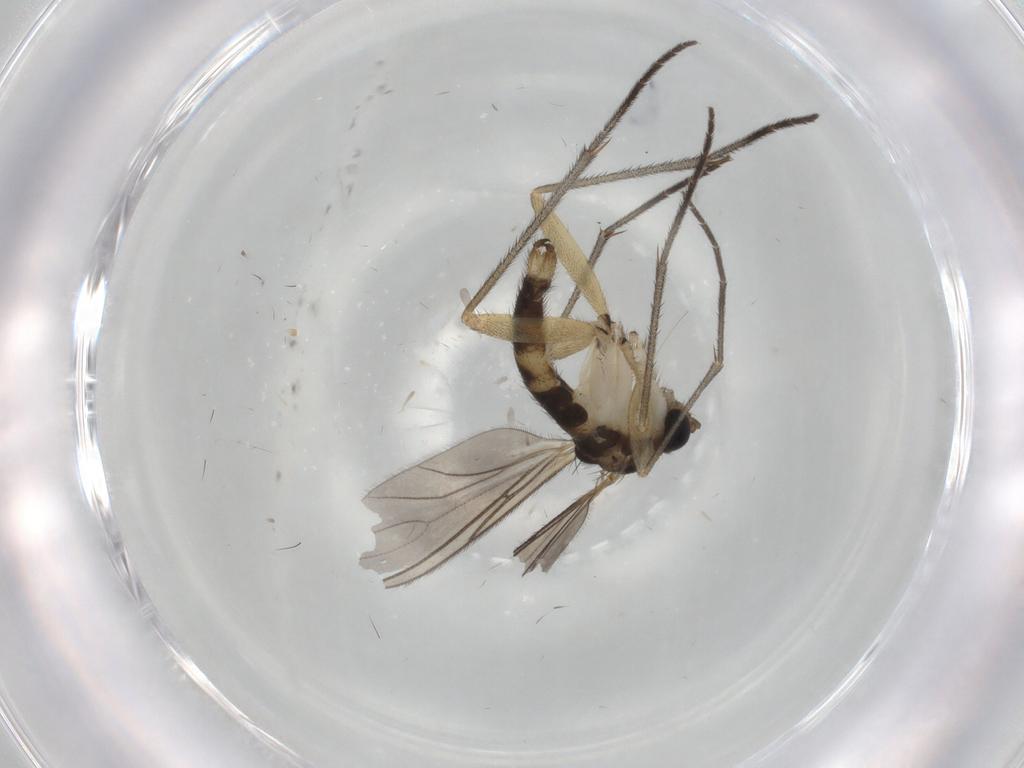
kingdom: Animalia
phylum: Arthropoda
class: Insecta
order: Diptera
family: Sciaridae
